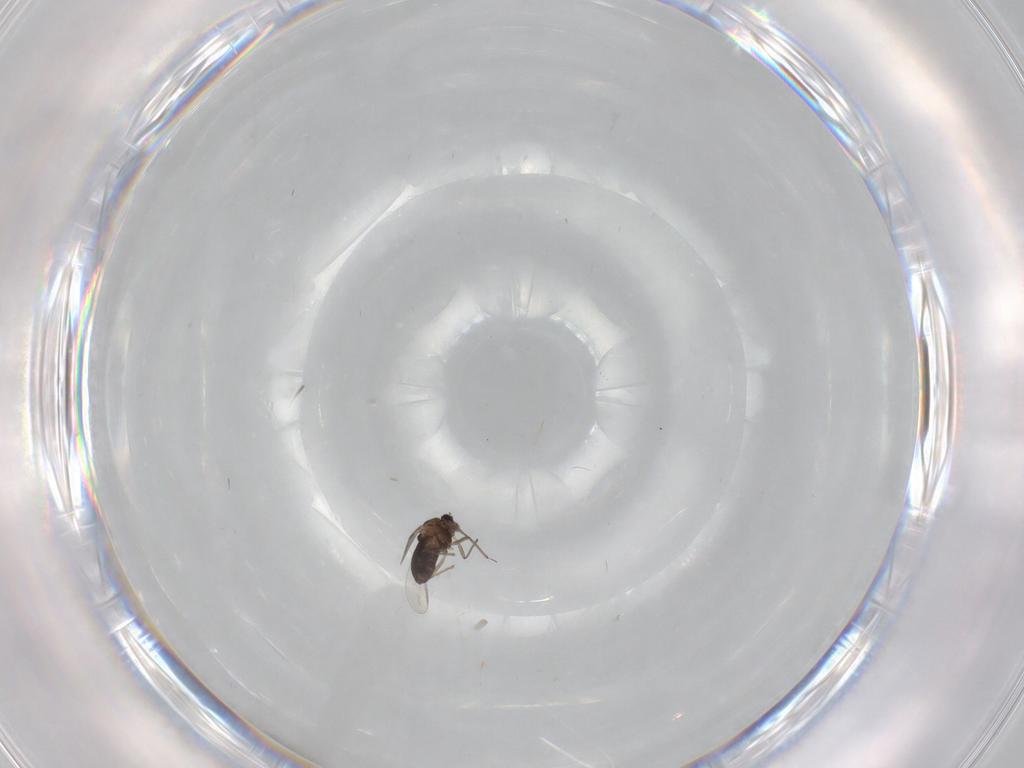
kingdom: Animalia
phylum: Arthropoda
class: Insecta
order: Diptera
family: Chironomidae
